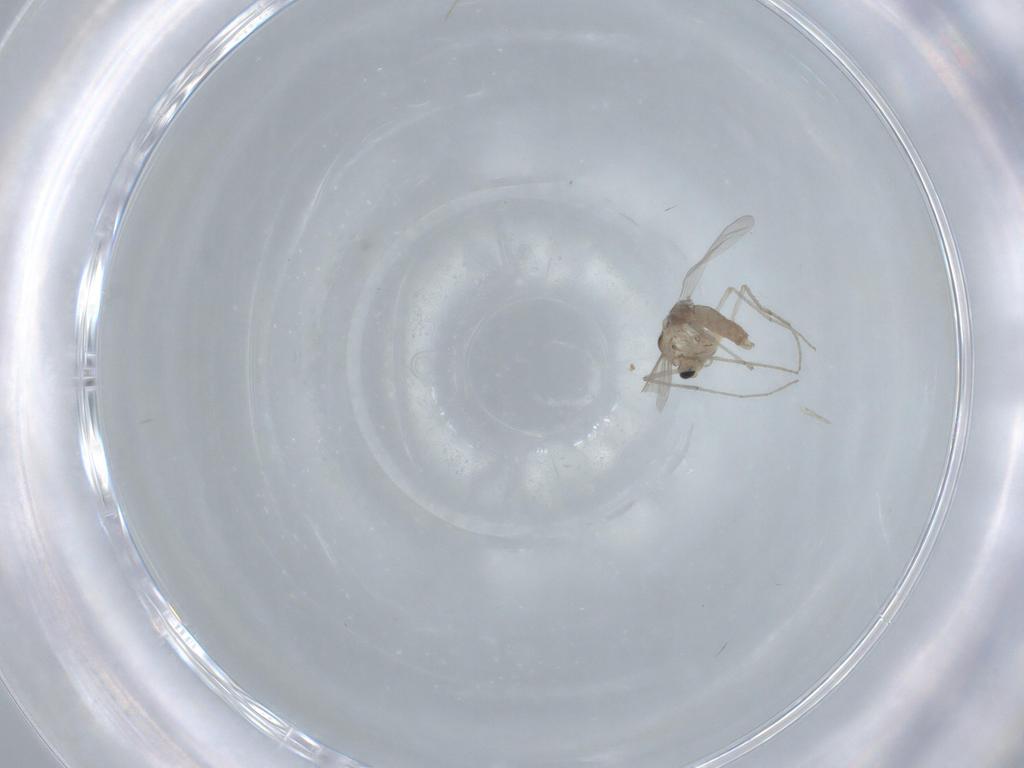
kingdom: Animalia
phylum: Arthropoda
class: Insecta
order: Diptera
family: Chironomidae
